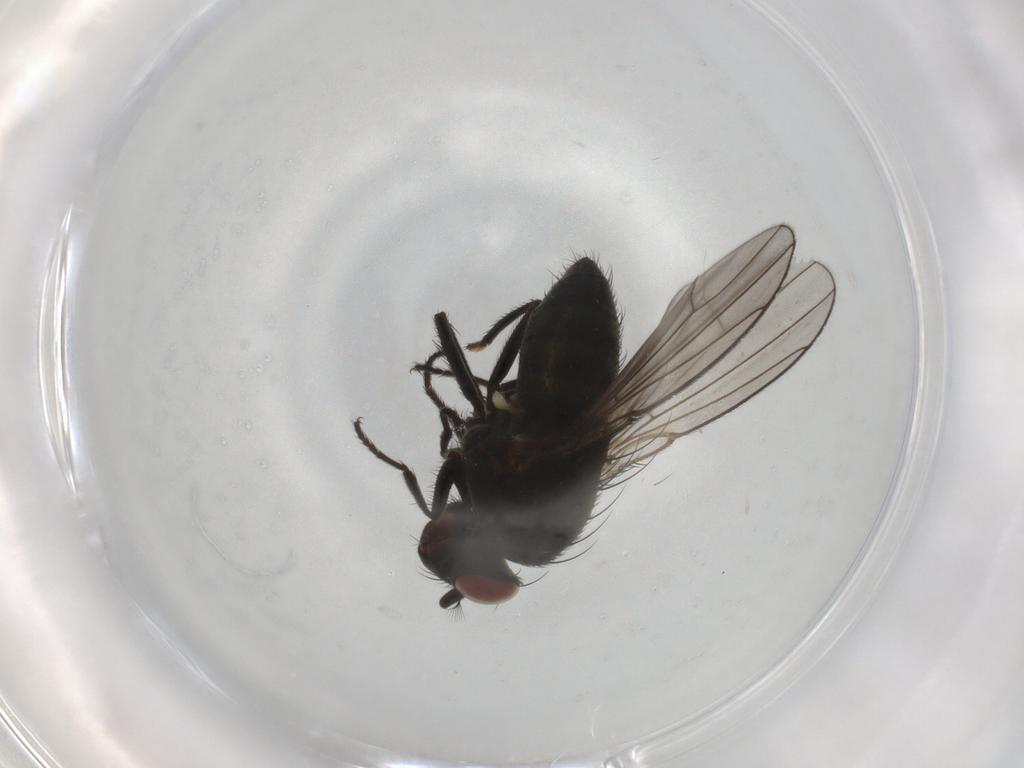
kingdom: Animalia
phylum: Arthropoda
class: Insecta
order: Diptera
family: Ephydridae
